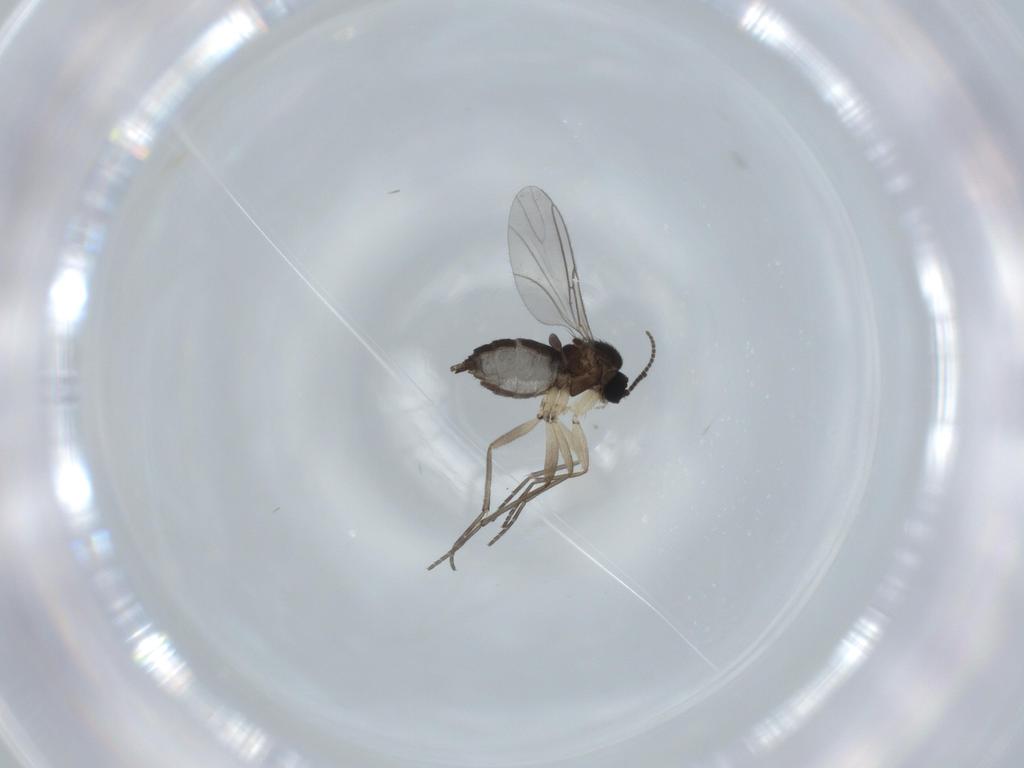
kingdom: Animalia
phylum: Arthropoda
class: Insecta
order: Diptera
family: Sciaridae
